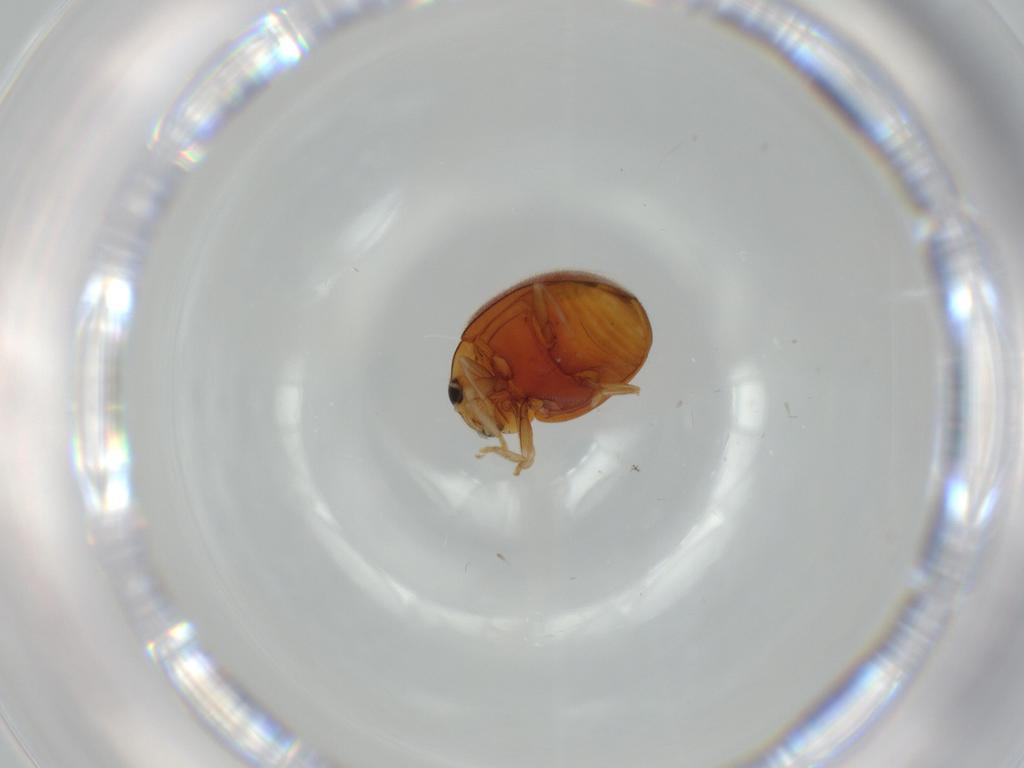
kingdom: Animalia
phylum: Arthropoda
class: Insecta
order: Coleoptera
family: Coccinellidae
